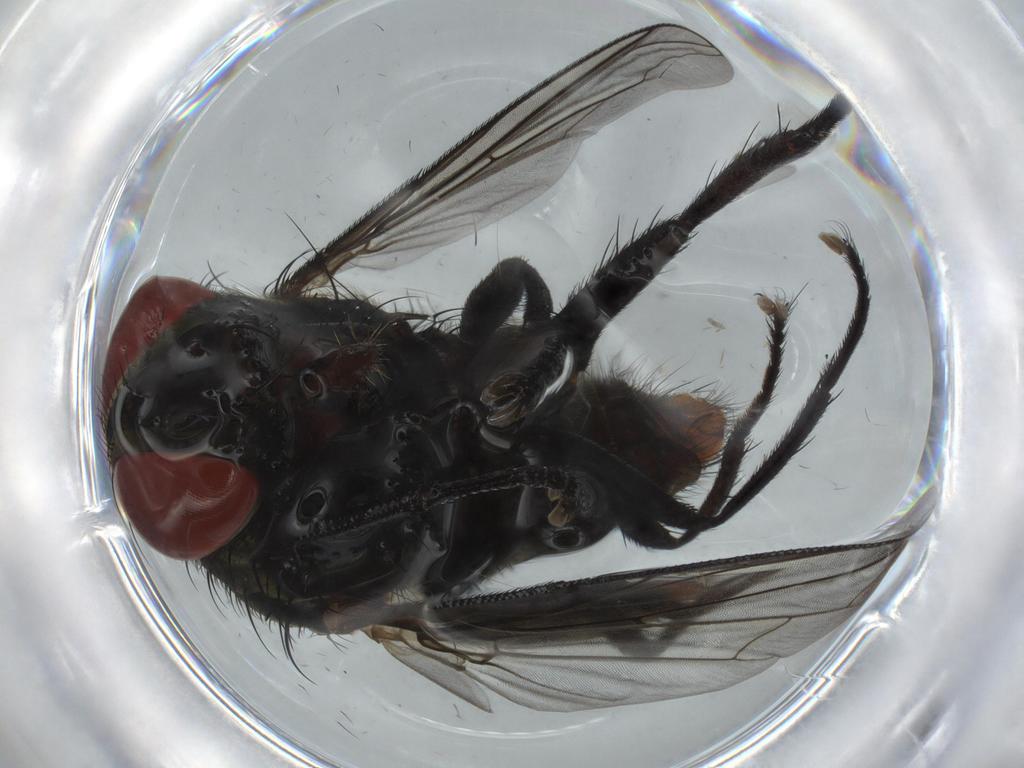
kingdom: Animalia
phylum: Arthropoda
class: Insecta
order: Diptera
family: Chironomidae
